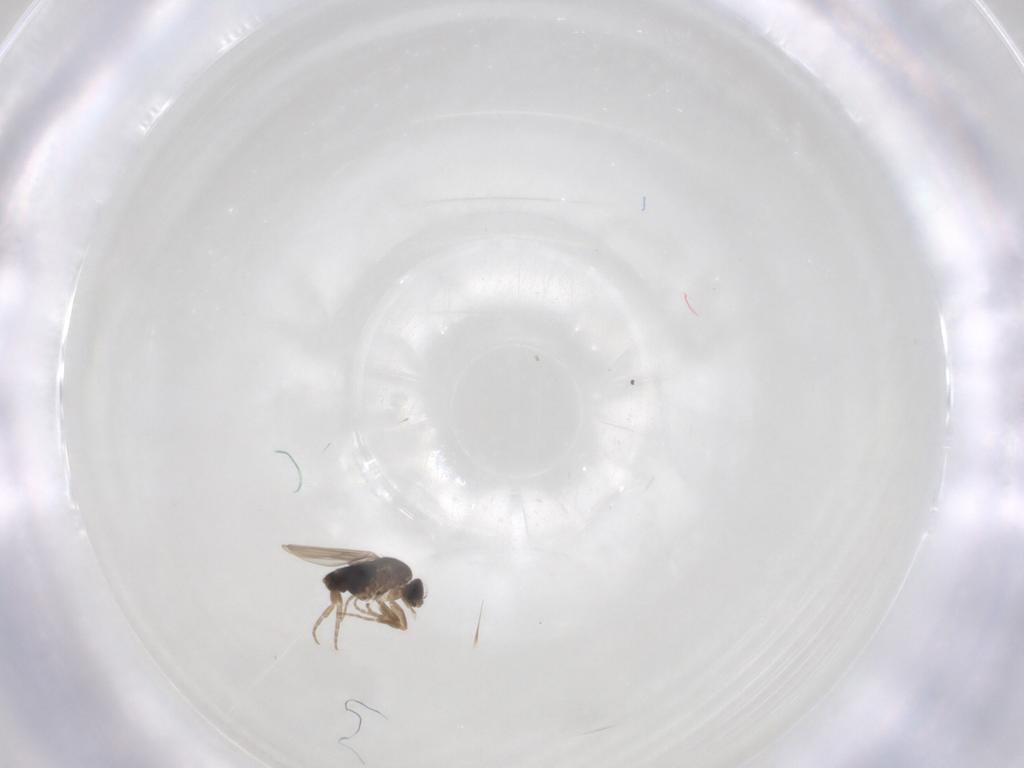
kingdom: Animalia
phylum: Arthropoda
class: Insecta
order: Diptera
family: Phoridae
